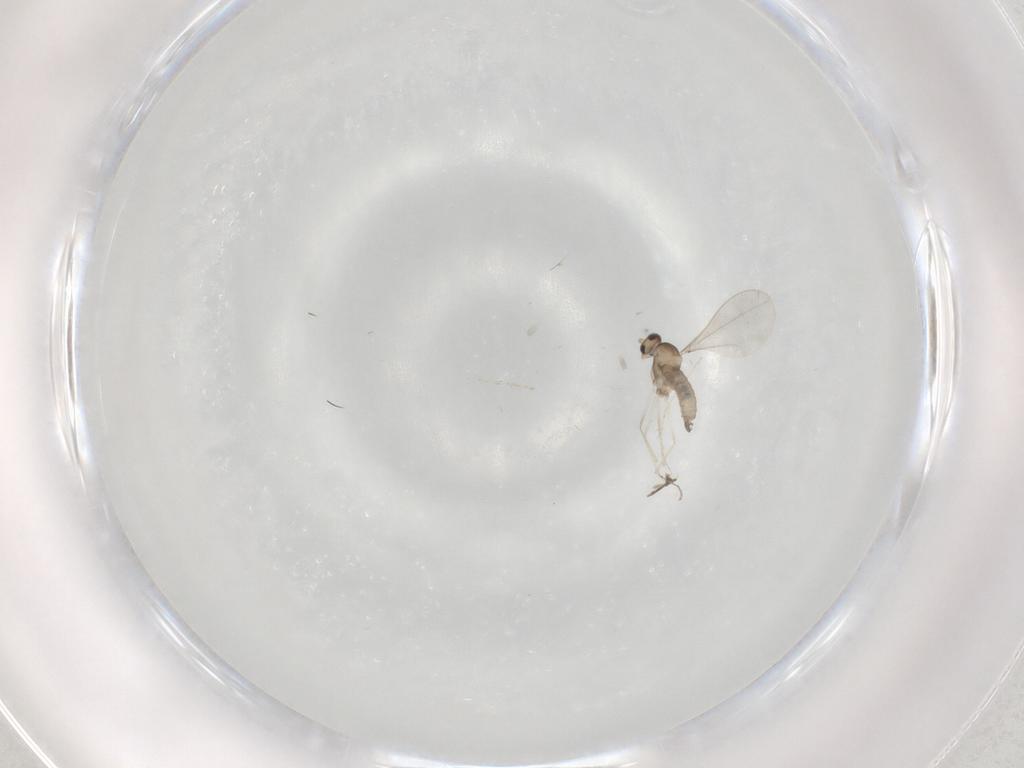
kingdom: Animalia
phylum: Arthropoda
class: Insecta
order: Diptera
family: Chironomidae
